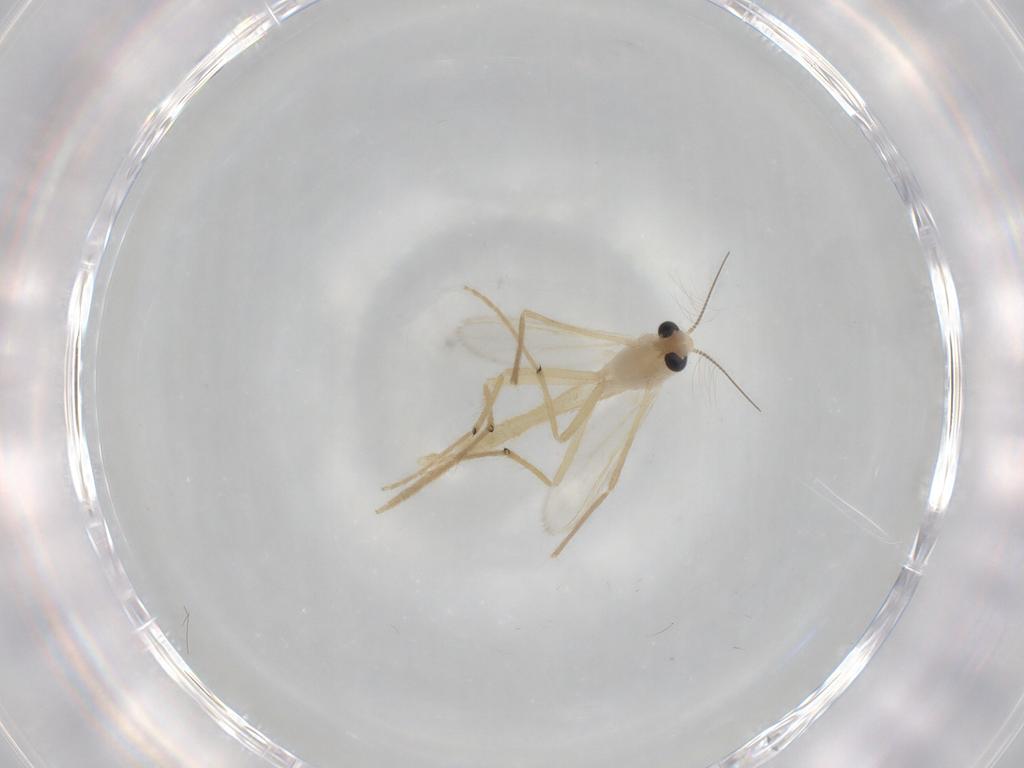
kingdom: Animalia
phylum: Arthropoda
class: Insecta
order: Diptera
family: Chironomidae
